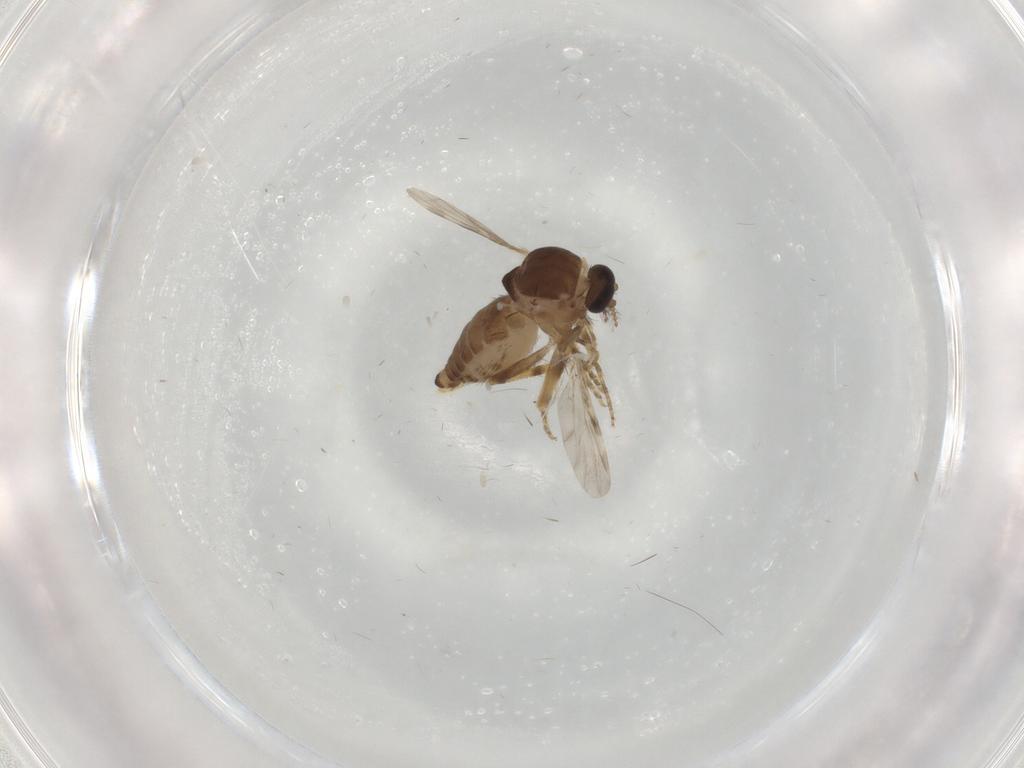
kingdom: Animalia
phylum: Arthropoda
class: Insecta
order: Diptera
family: Ceratopogonidae
